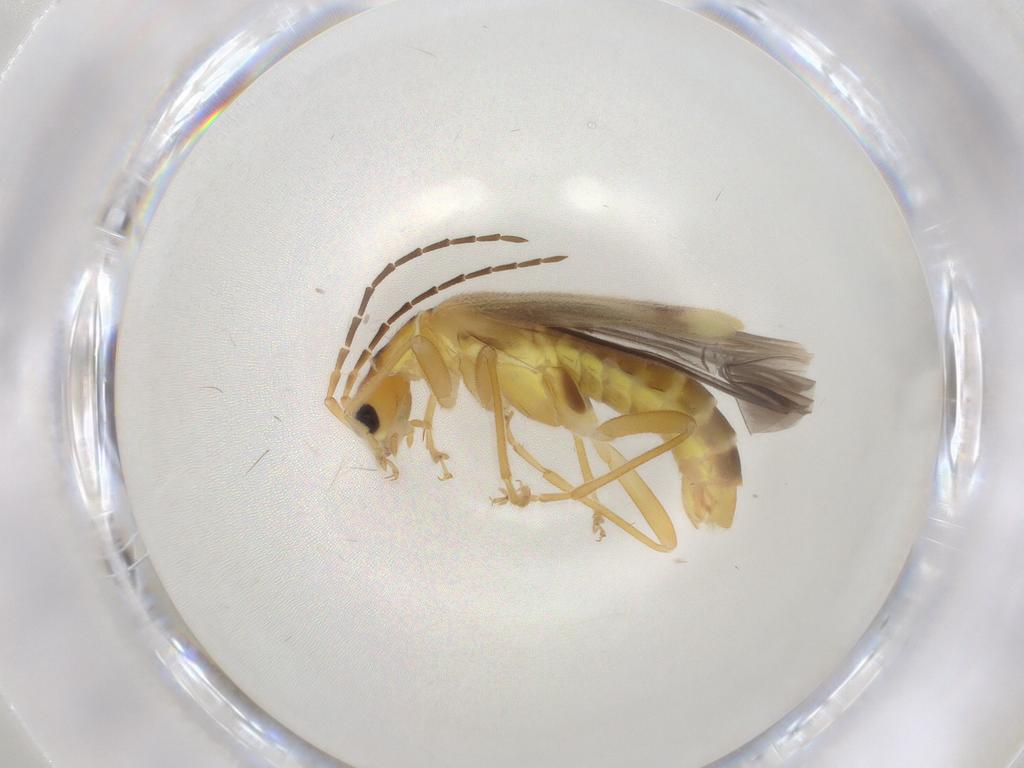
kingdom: Animalia
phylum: Arthropoda
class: Insecta
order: Coleoptera
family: Cantharidae
